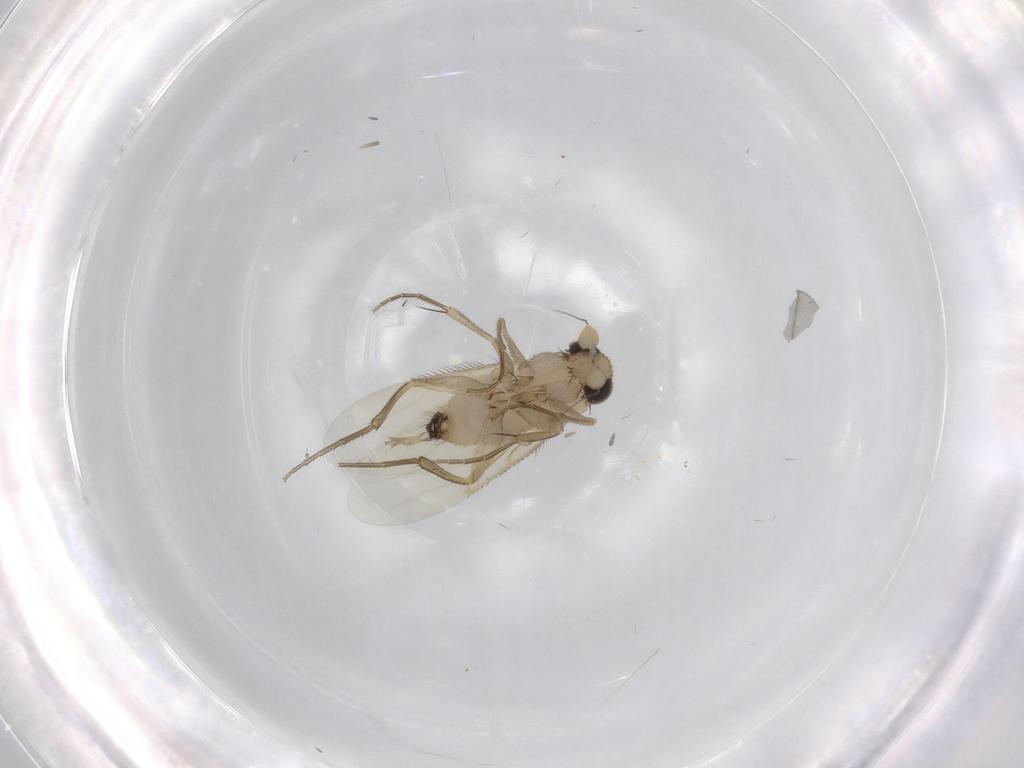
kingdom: Animalia
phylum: Arthropoda
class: Insecta
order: Diptera
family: Phoridae
